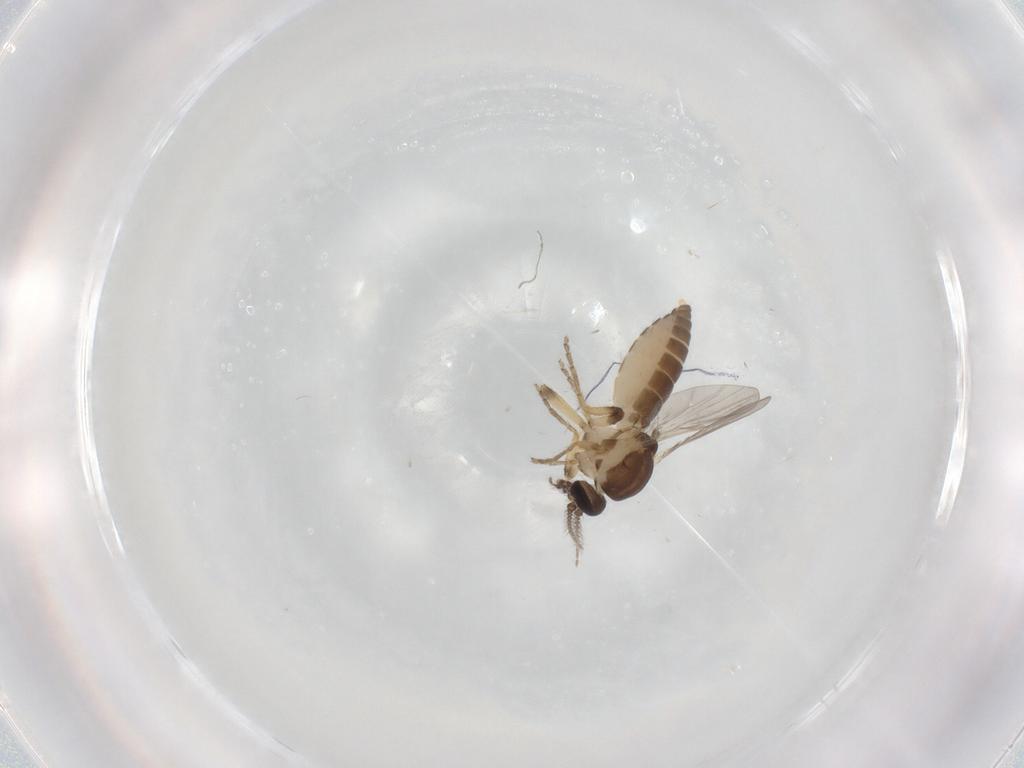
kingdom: Animalia
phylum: Arthropoda
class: Insecta
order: Diptera
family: Ceratopogonidae
